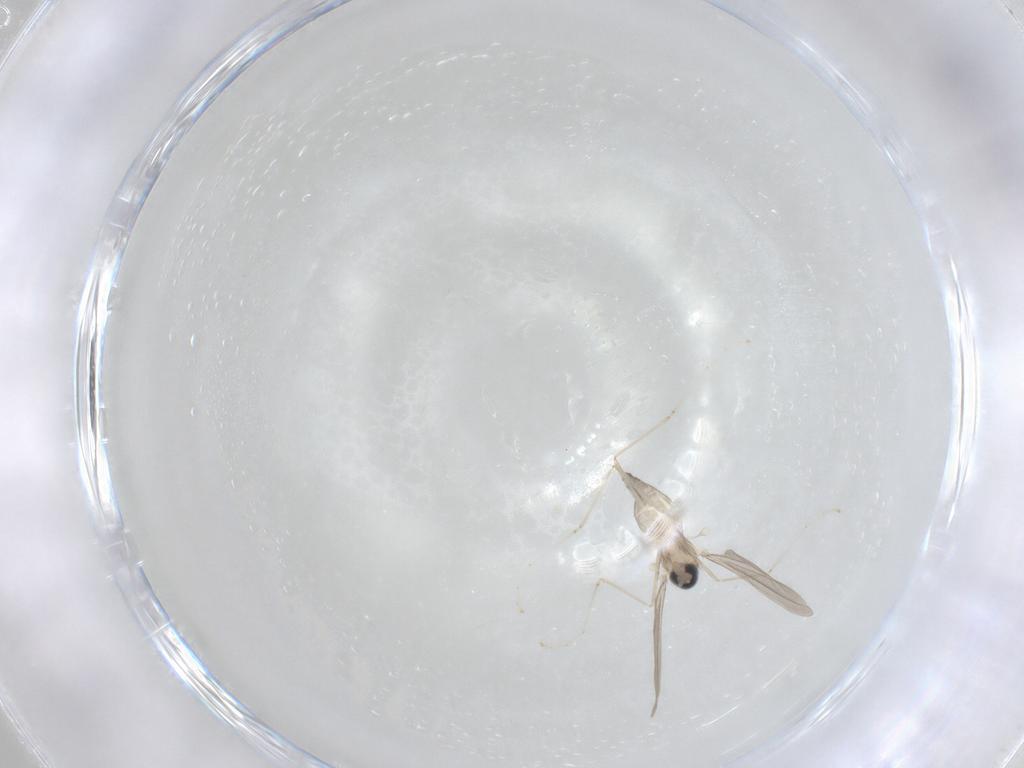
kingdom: Animalia
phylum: Arthropoda
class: Insecta
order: Diptera
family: Cecidomyiidae
